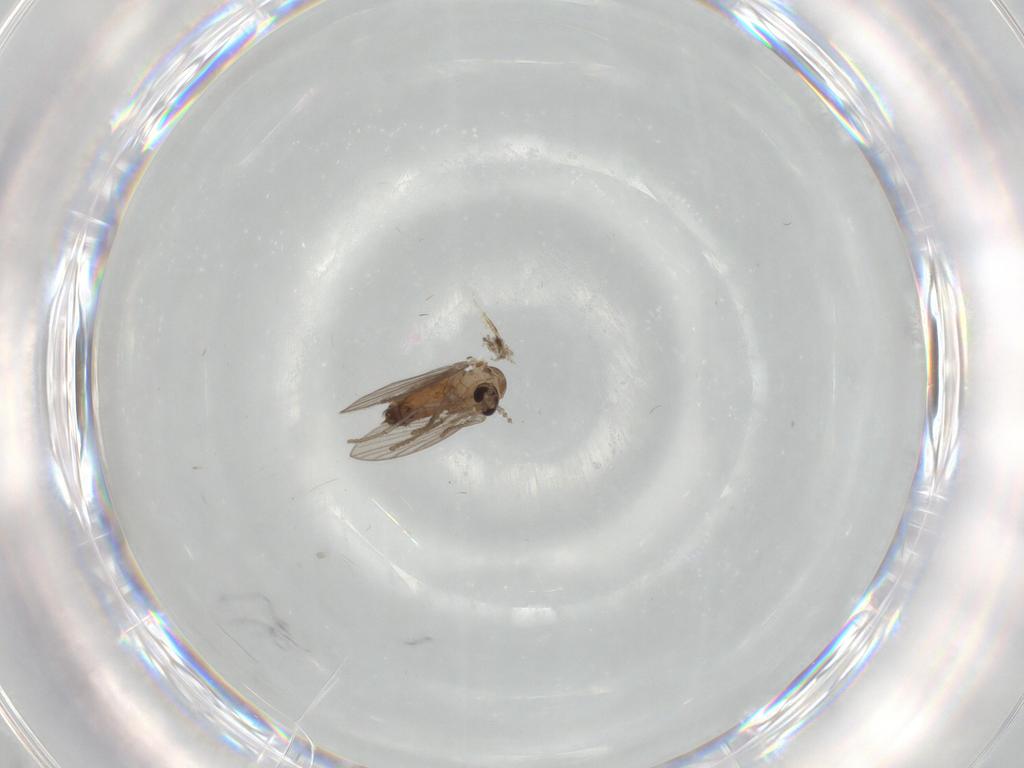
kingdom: Animalia
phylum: Arthropoda
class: Insecta
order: Diptera
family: Psychodidae
